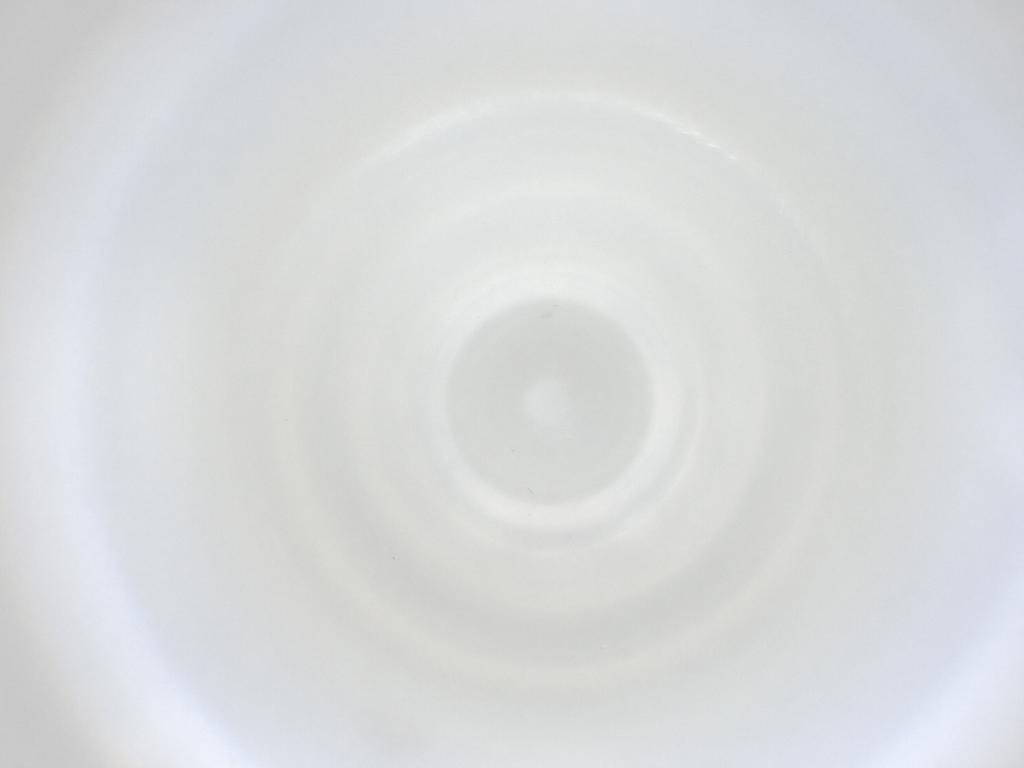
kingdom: Animalia
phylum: Arthropoda
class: Insecta
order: Diptera
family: Cecidomyiidae
